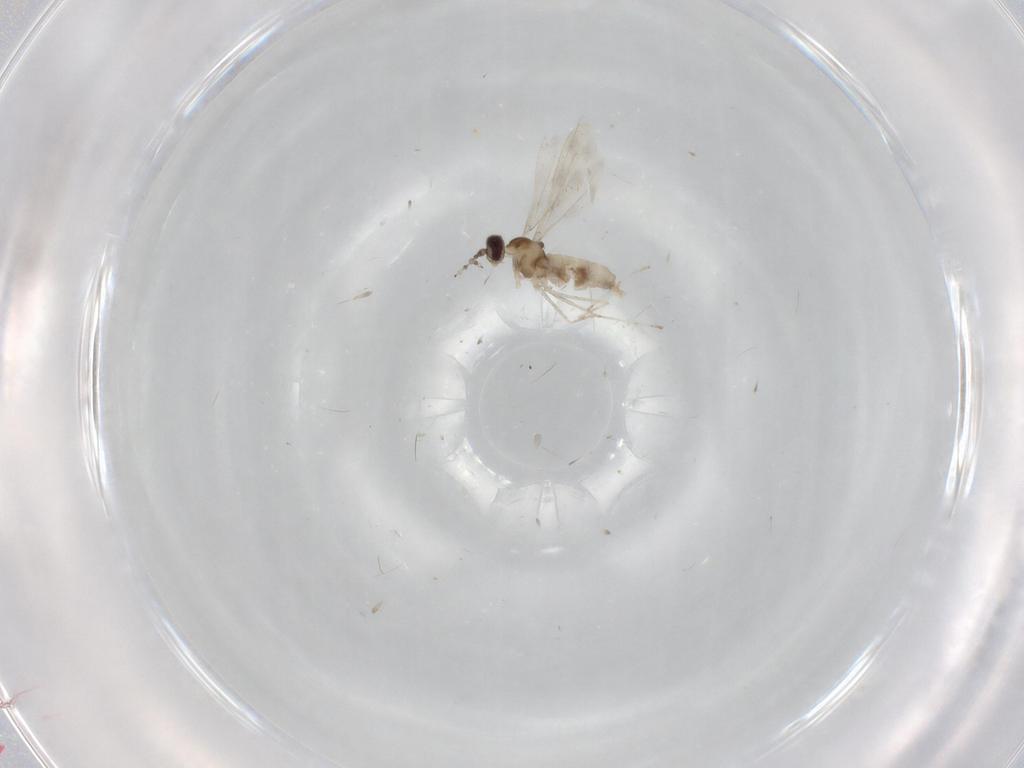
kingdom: Animalia
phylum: Arthropoda
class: Insecta
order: Diptera
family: Cecidomyiidae
